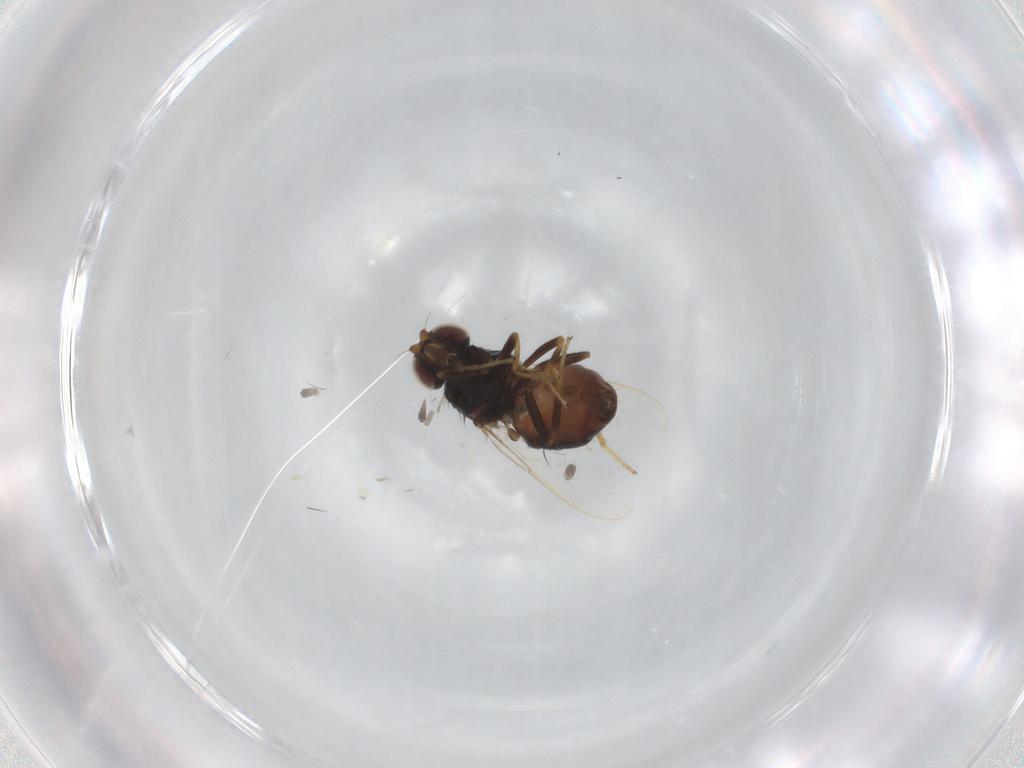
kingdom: Animalia
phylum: Arthropoda
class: Insecta
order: Diptera
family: Chloropidae
